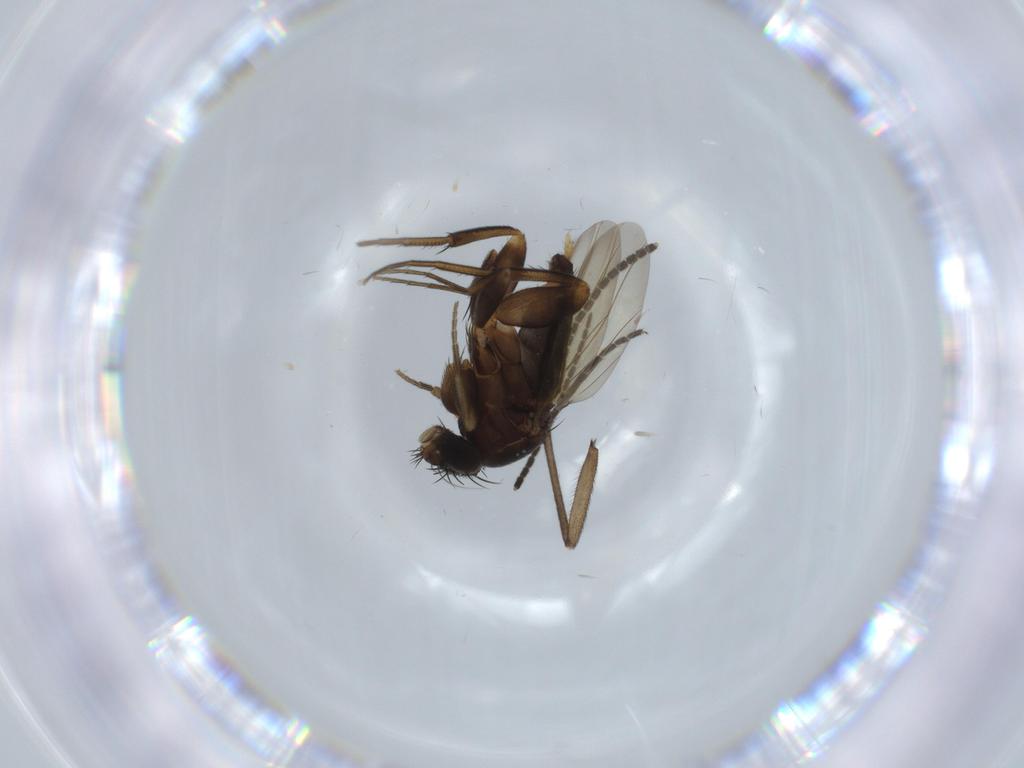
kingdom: Animalia
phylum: Arthropoda
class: Insecta
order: Diptera
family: Sciaridae
